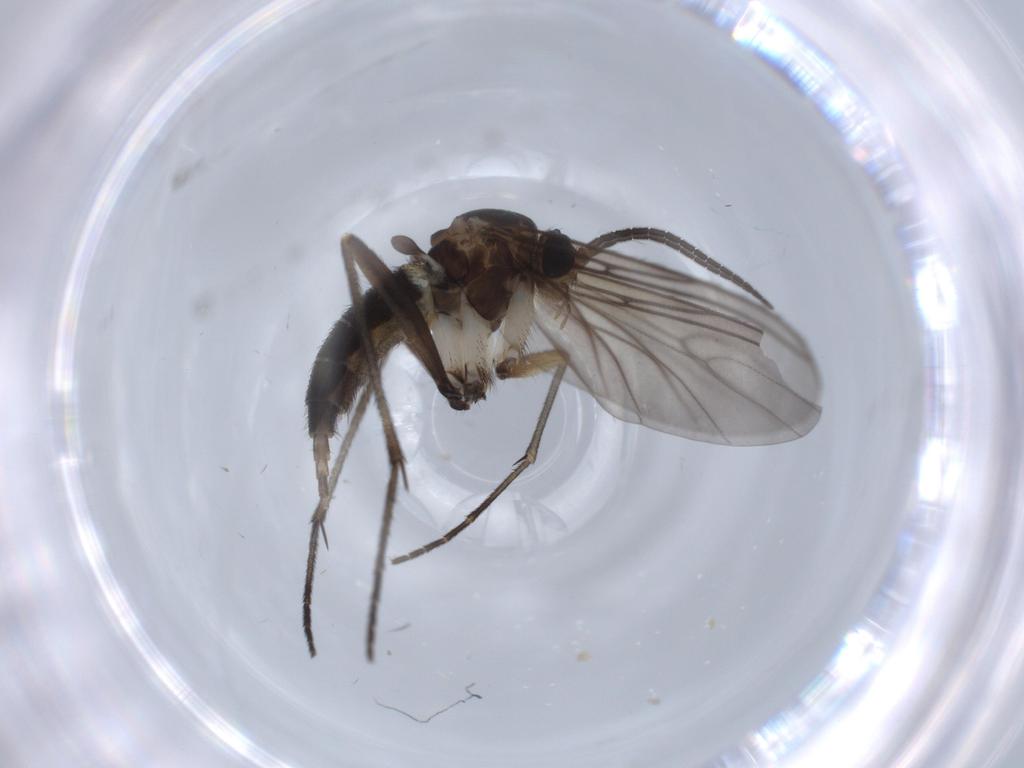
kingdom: Animalia
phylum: Arthropoda
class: Insecta
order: Diptera
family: Sciaridae
